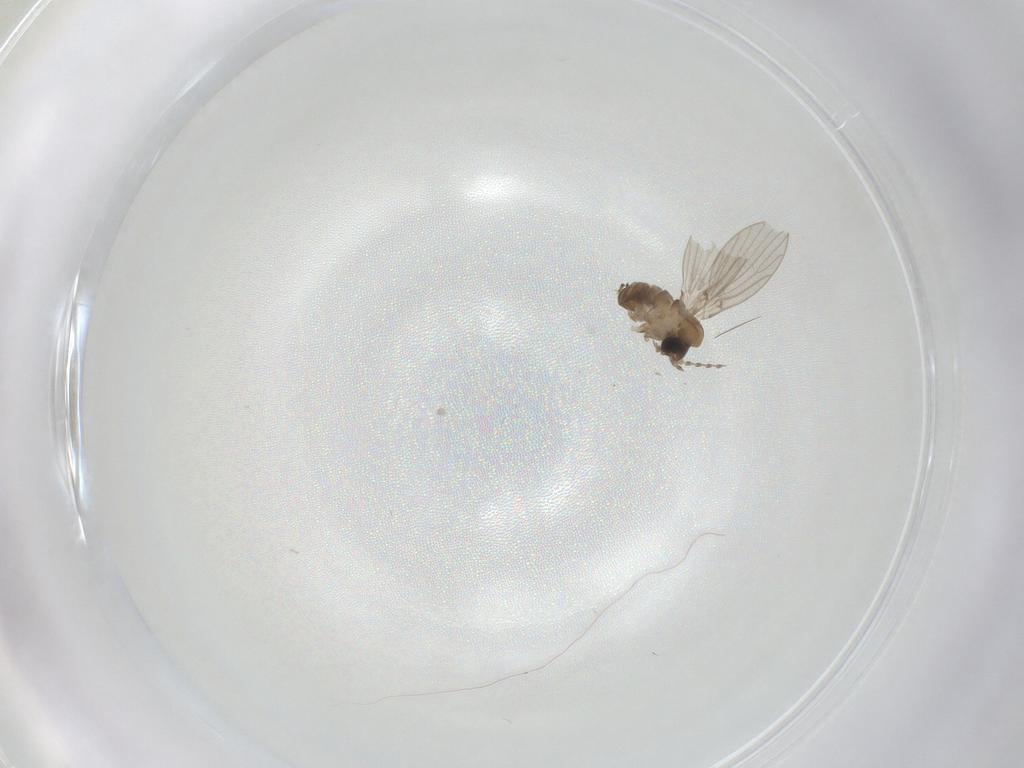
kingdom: Animalia
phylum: Arthropoda
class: Insecta
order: Diptera
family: Psychodidae
